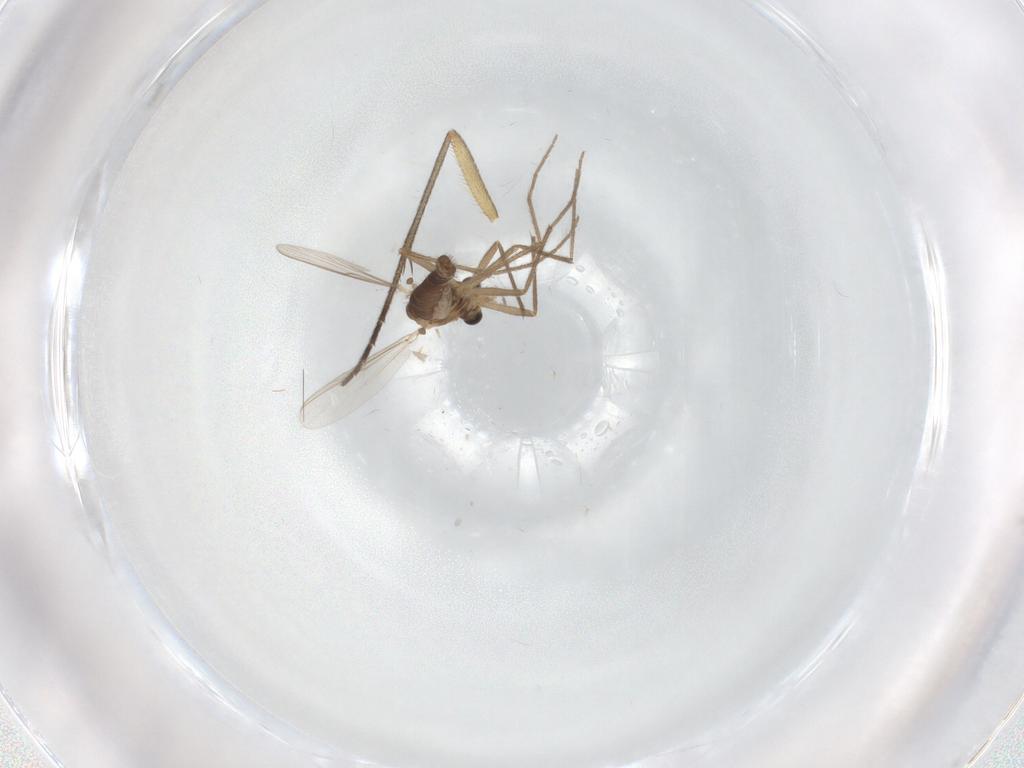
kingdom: Animalia
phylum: Arthropoda
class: Insecta
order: Diptera
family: Chironomidae
